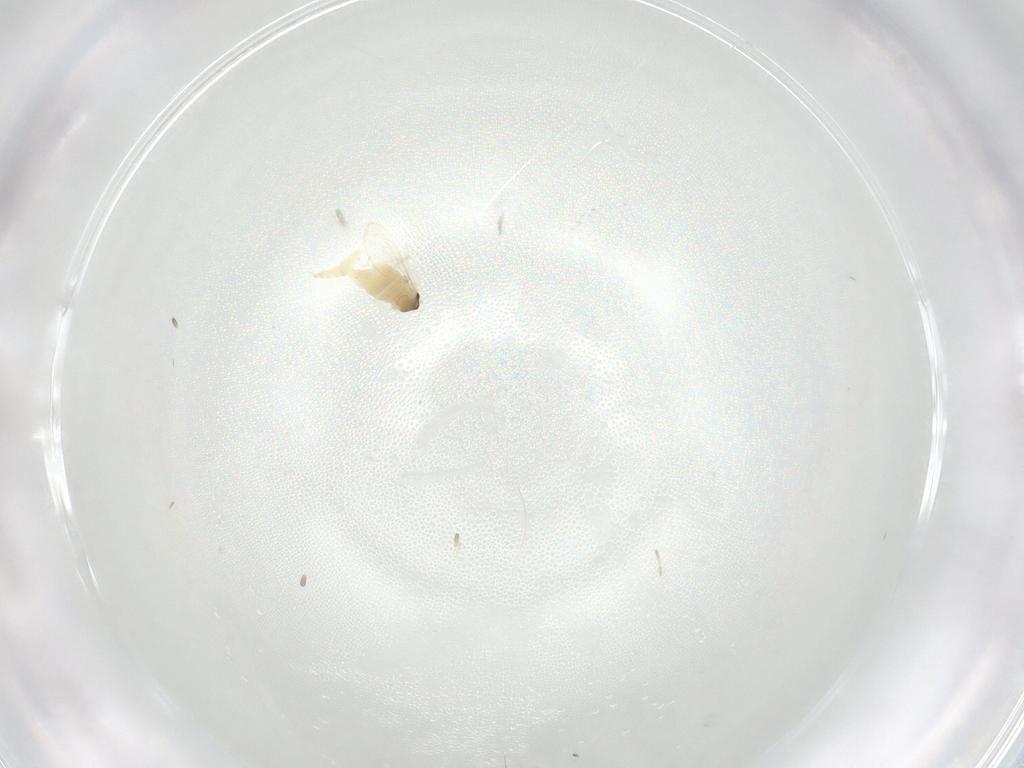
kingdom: Animalia
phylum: Arthropoda
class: Insecta
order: Diptera
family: Cecidomyiidae
